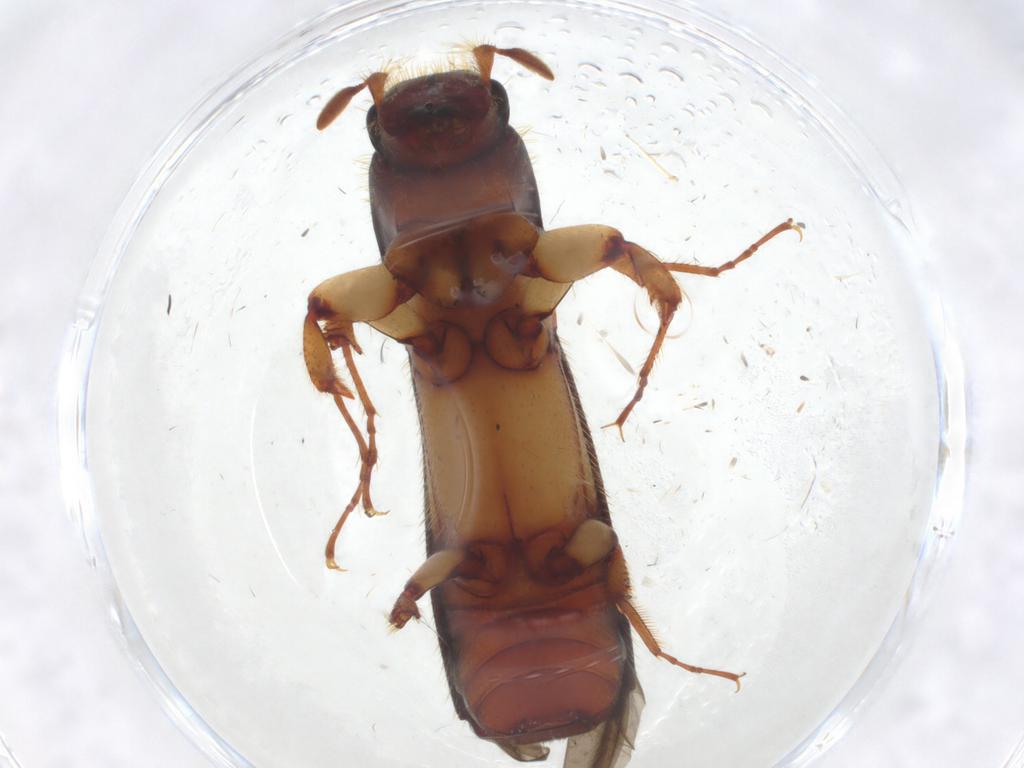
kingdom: Animalia
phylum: Arthropoda
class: Insecta
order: Coleoptera
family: Curculionidae
